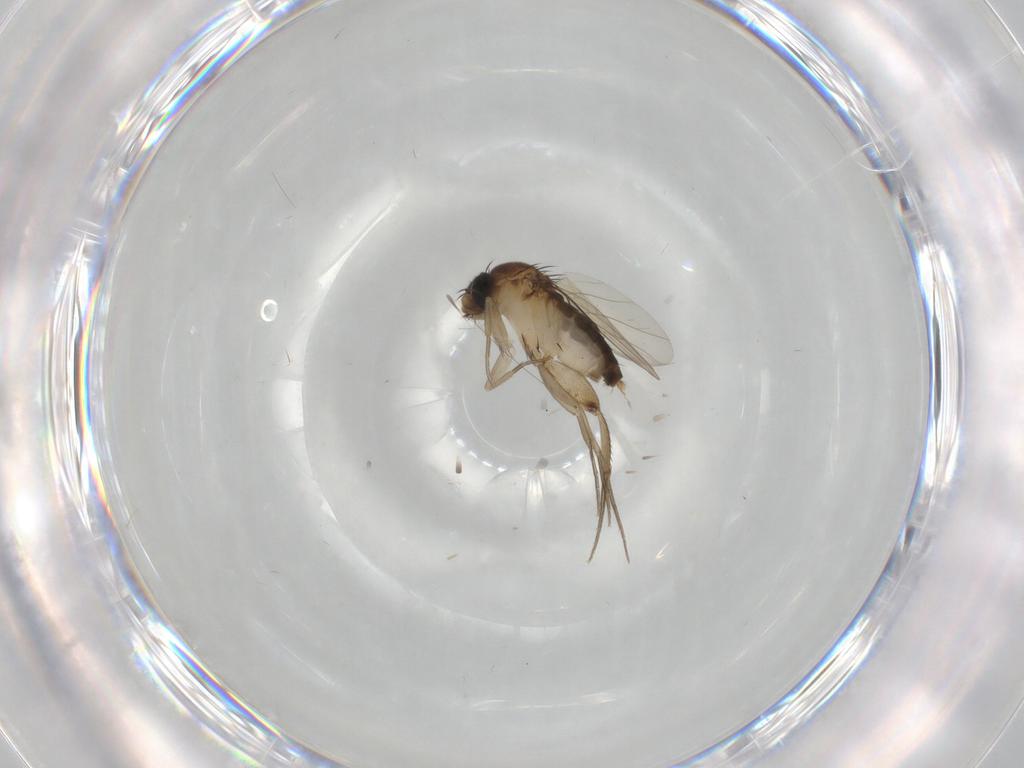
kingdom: Animalia
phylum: Arthropoda
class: Insecta
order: Diptera
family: Phoridae
